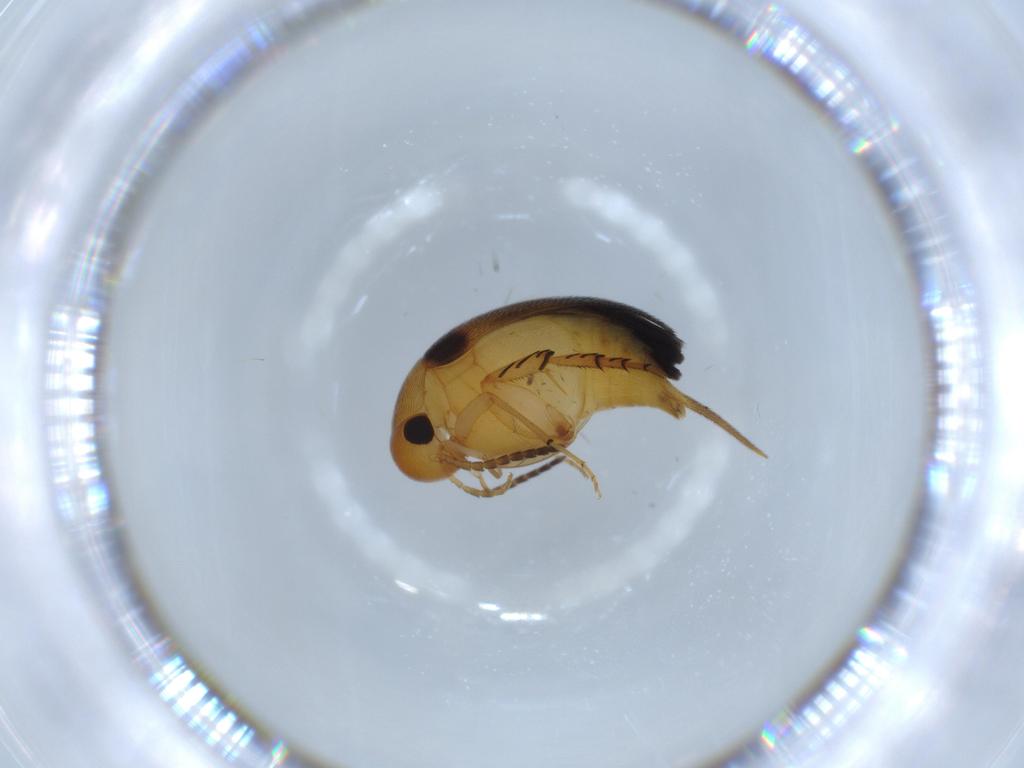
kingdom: Animalia
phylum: Arthropoda
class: Insecta
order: Coleoptera
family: Mordellidae
